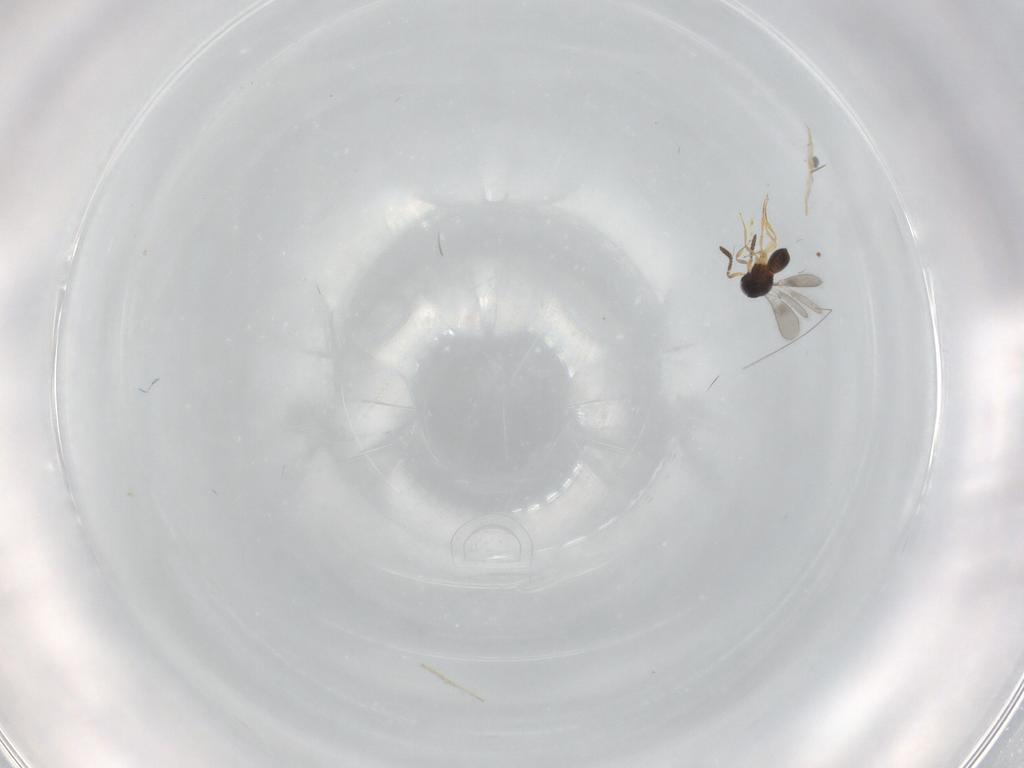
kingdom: Animalia
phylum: Arthropoda
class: Insecta
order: Hymenoptera
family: Scelionidae
